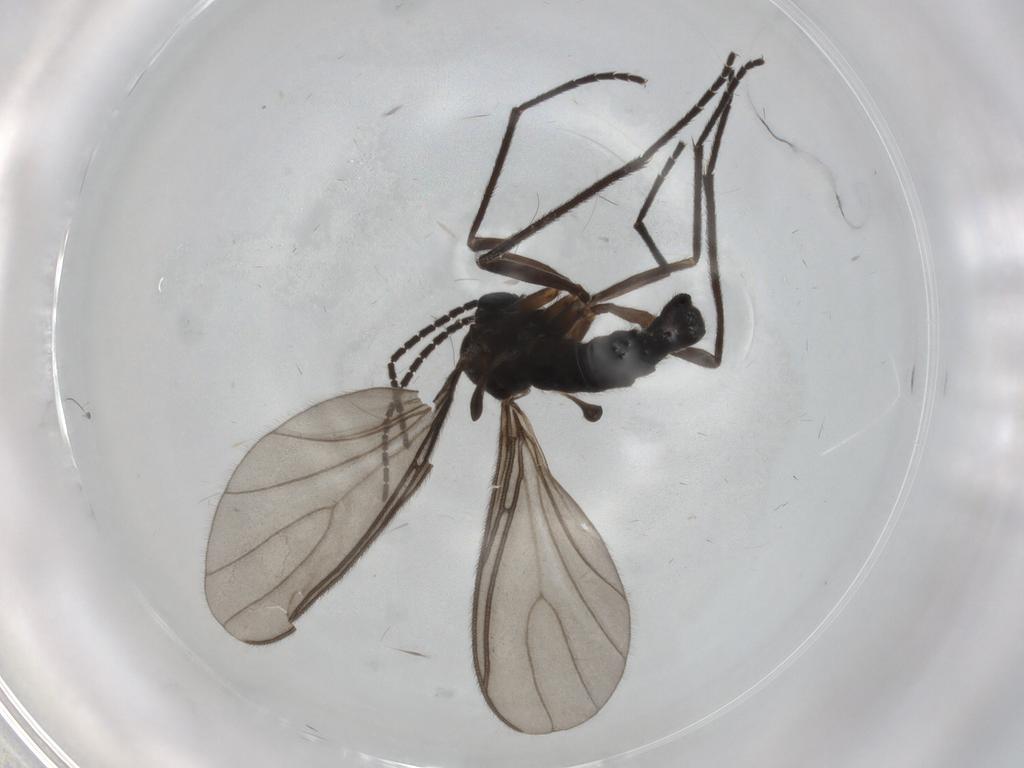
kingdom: Animalia
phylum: Arthropoda
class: Insecta
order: Diptera
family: Sciaridae
